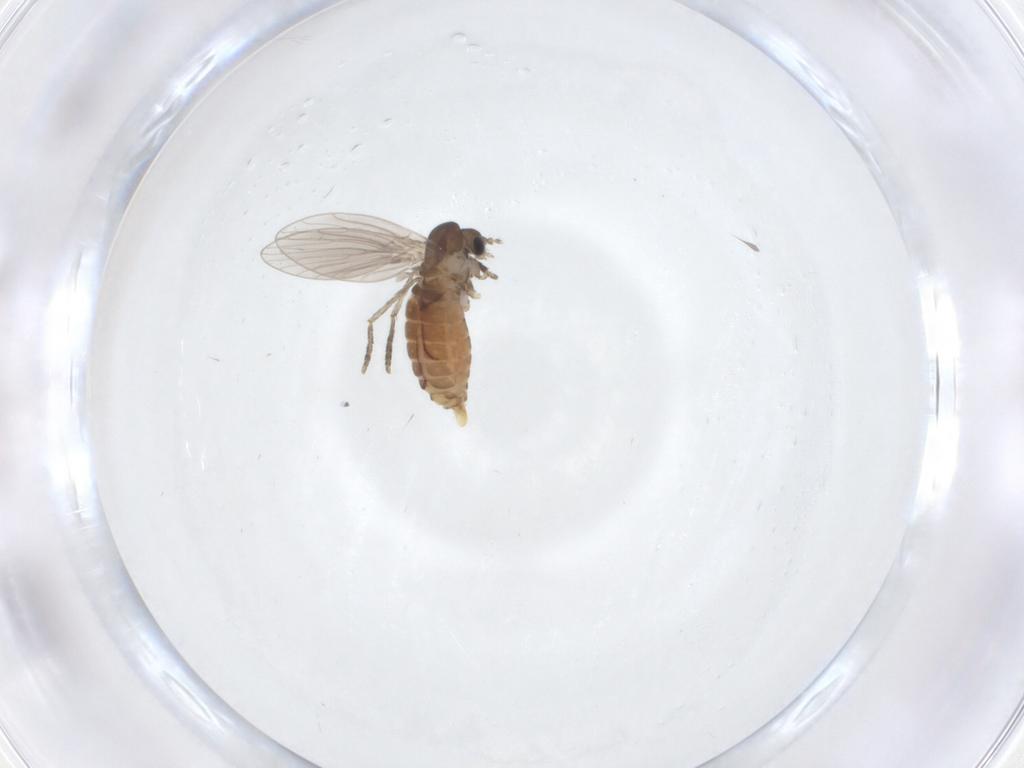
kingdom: Animalia
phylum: Arthropoda
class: Insecta
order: Diptera
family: Psychodidae
